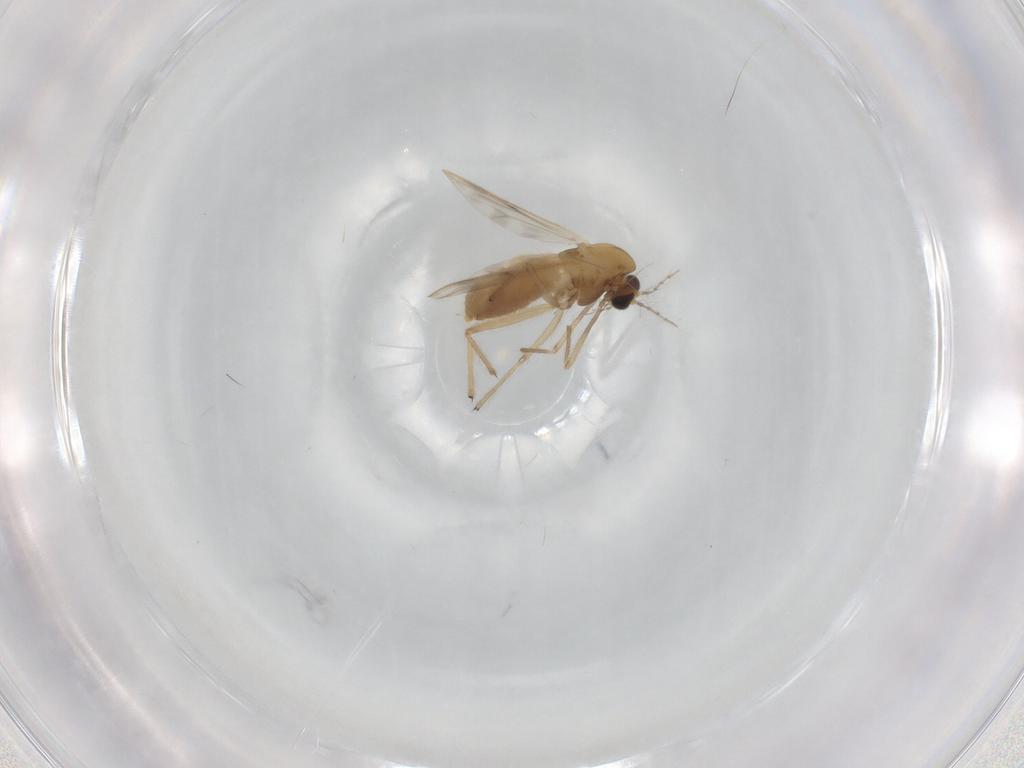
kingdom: Animalia
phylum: Arthropoda
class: Insecta
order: Diptera
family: Chironomidae
